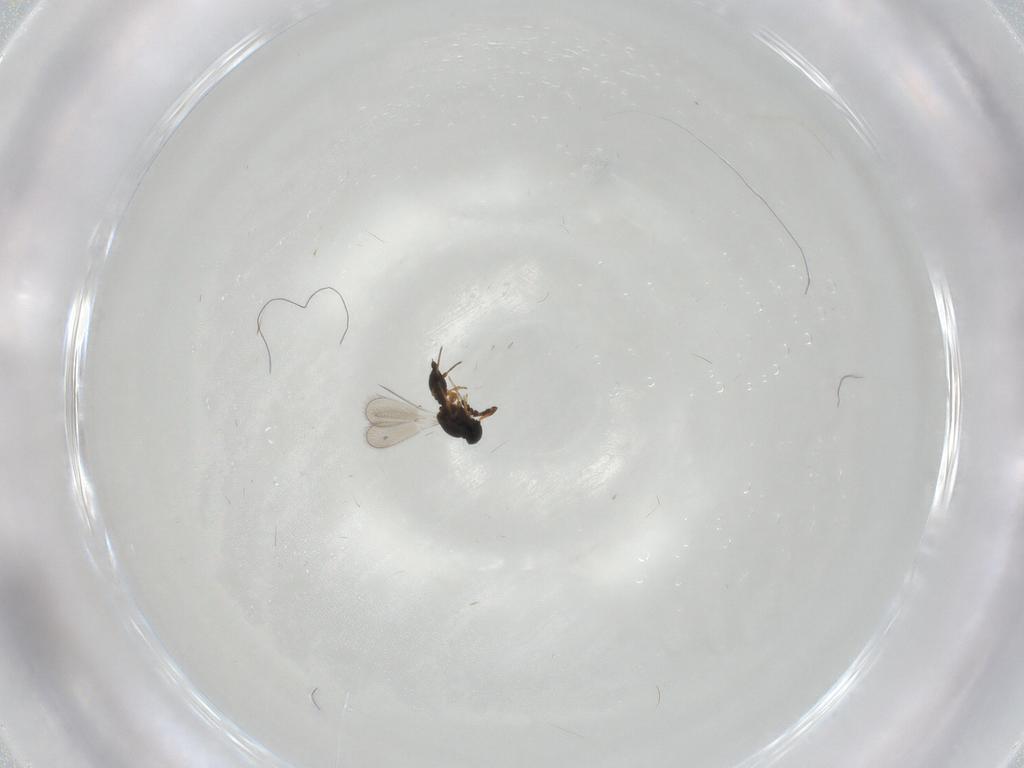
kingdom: Animalia
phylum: Arthropoda
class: Insecta
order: Hymenoptera
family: Platygastridae
